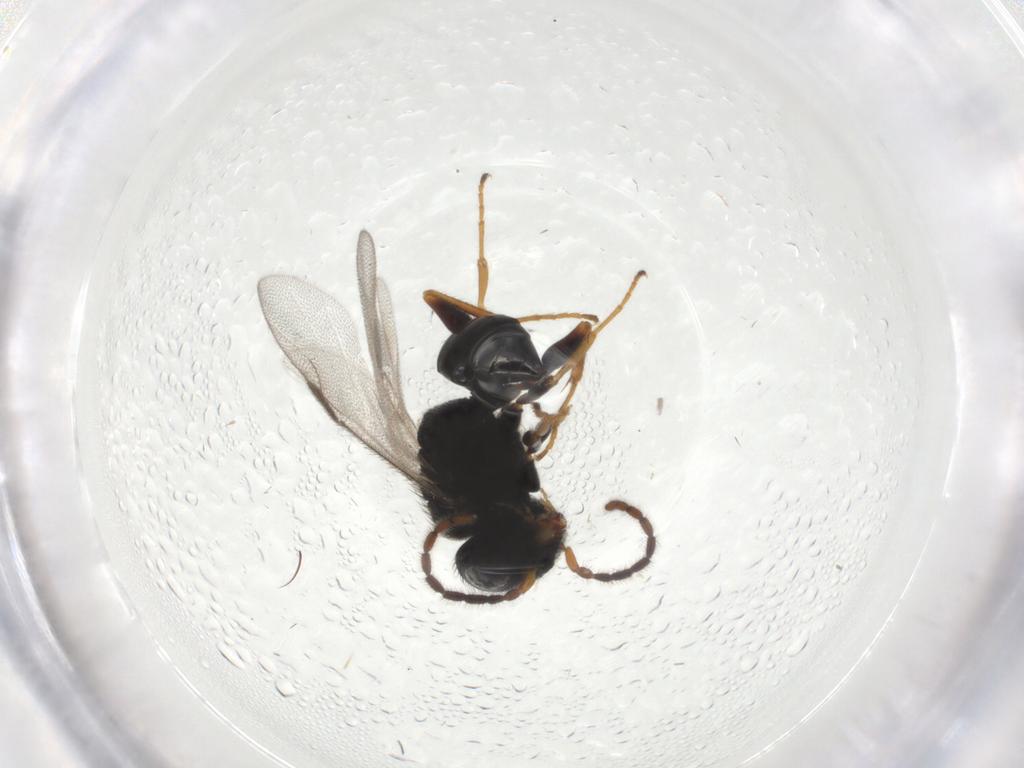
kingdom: Animalia
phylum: Arthropoda
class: Insecta
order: Hymenoptera
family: Dryinidae
